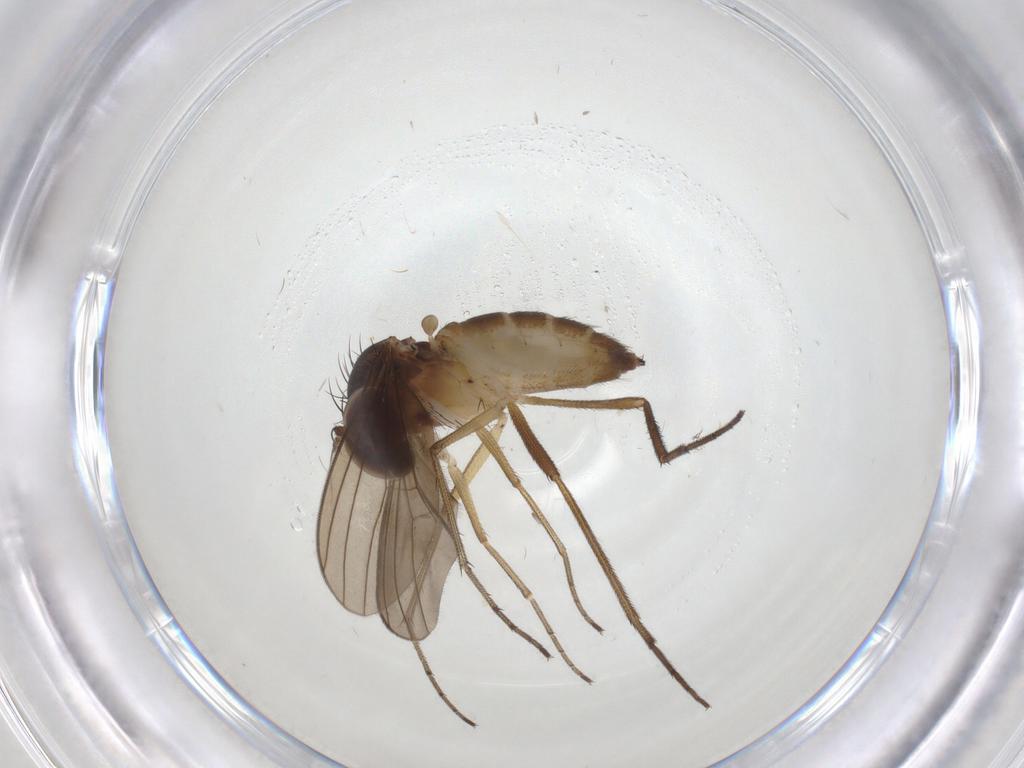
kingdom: Animalia
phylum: Arthropoda
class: Insecta
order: Diptera
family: Dolichopodidae
